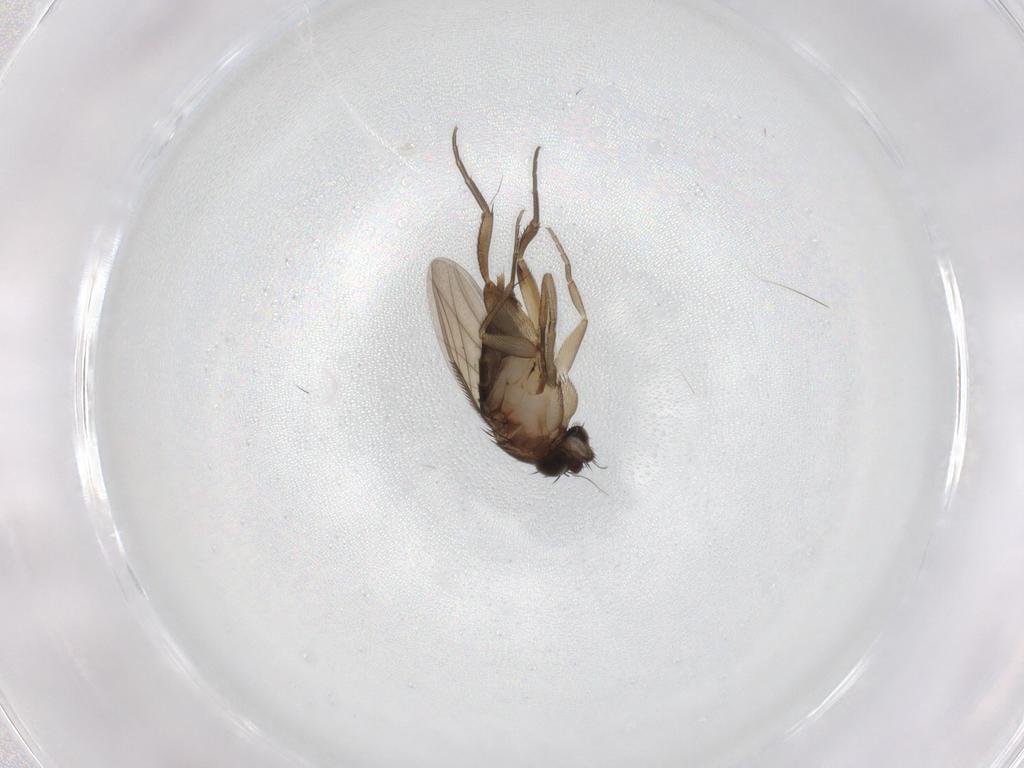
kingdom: Animalia
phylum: Arthropoda
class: Insecta
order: Diptera
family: Phoridae
